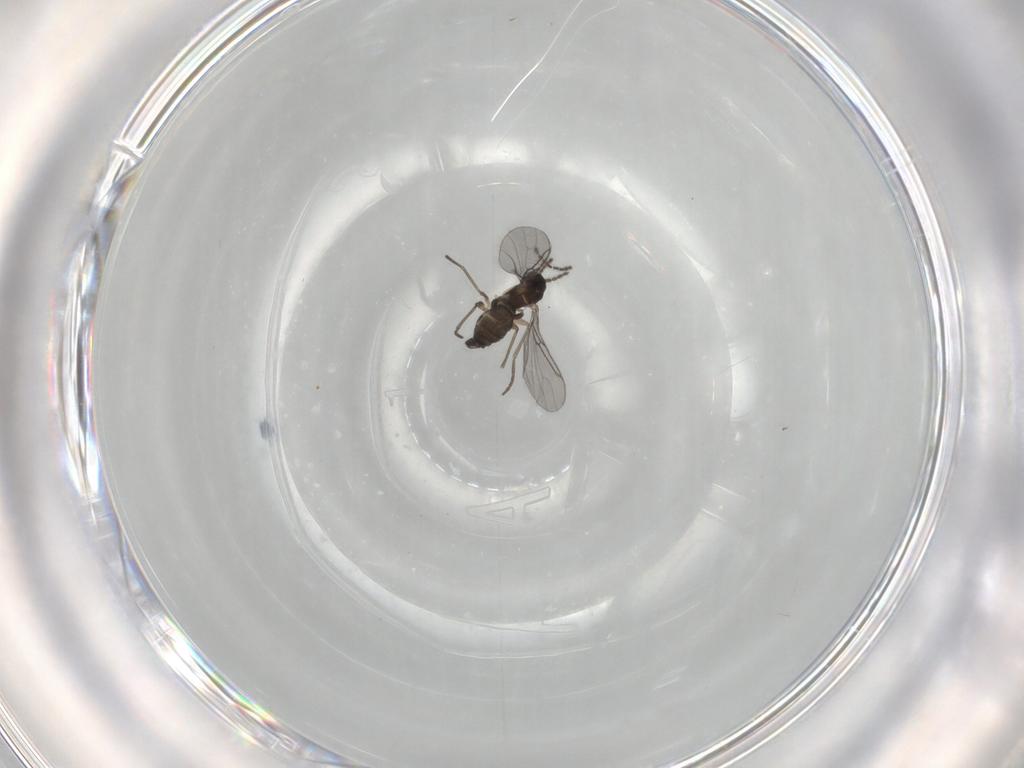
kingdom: Animalia
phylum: Arthropoda
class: Insecta
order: Diptera
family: Sciaridae
